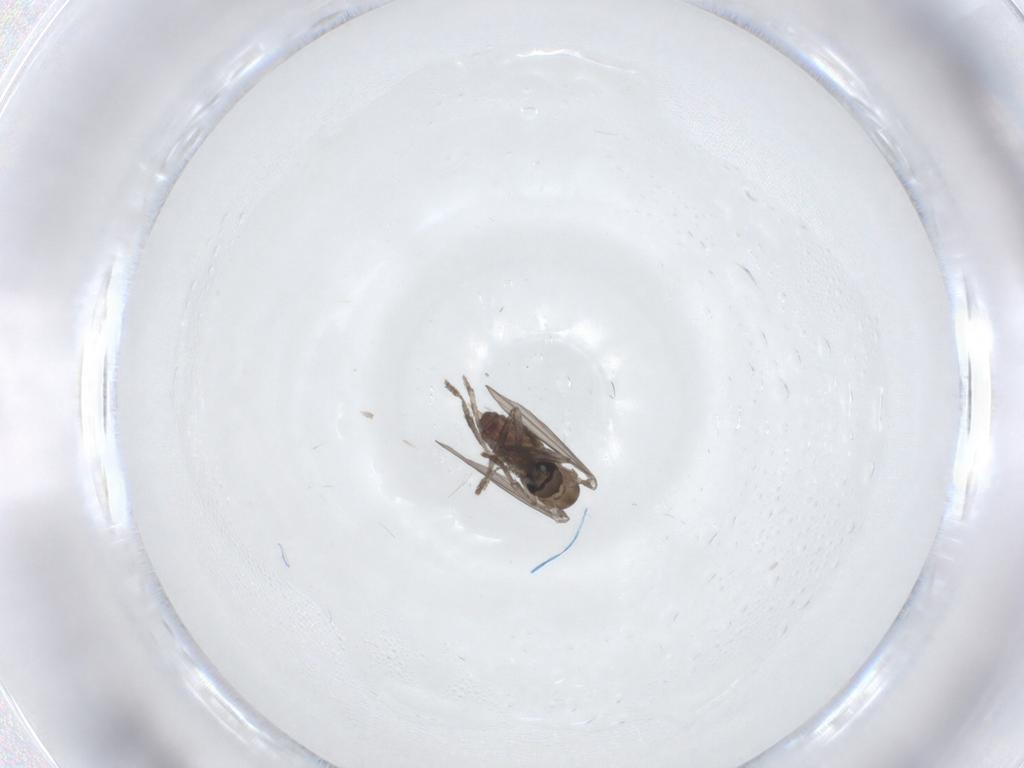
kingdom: Animalia
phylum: Arthropoda
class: Insecta
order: Diptera
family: Psychodidae
